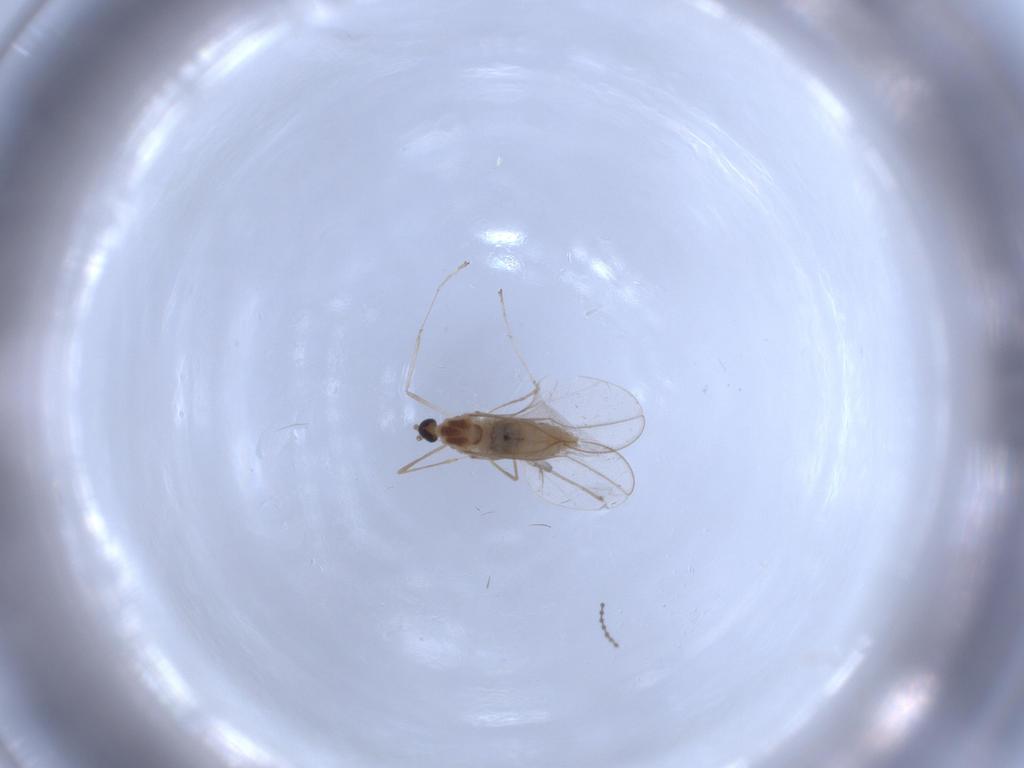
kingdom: Animalia
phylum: Arthropoda
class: Insecta
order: Diptera
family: Cecidomyiidae
